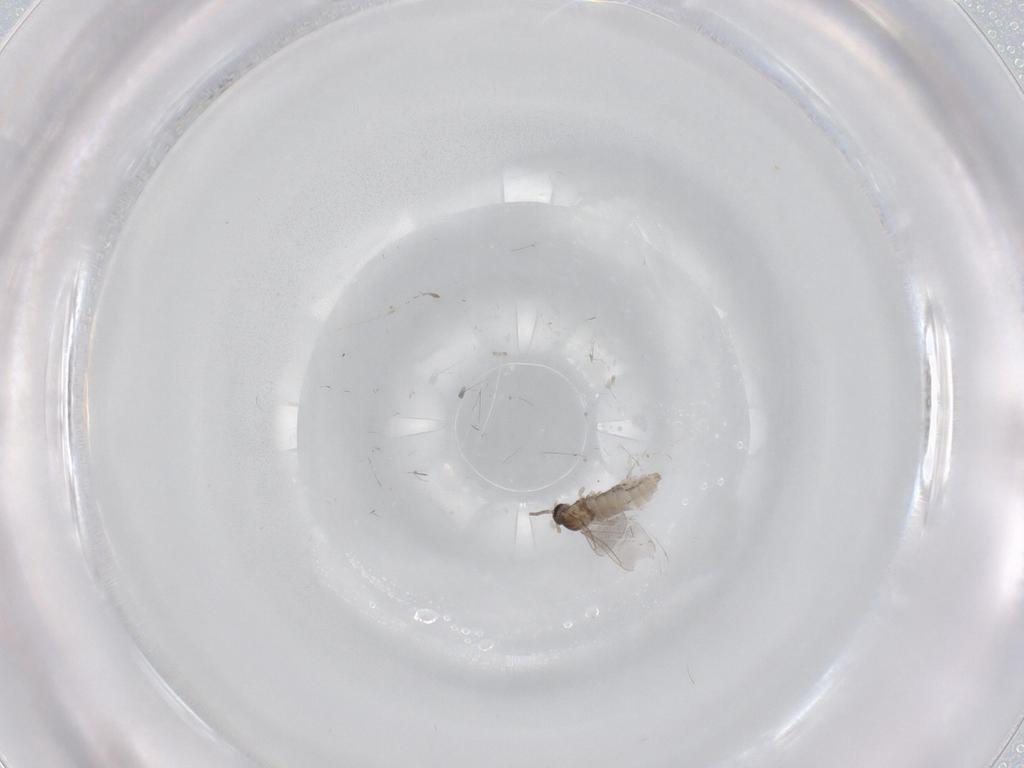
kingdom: Animalia
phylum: Arthropoda
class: Insecta
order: Diptera
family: Cecidomyiidae
